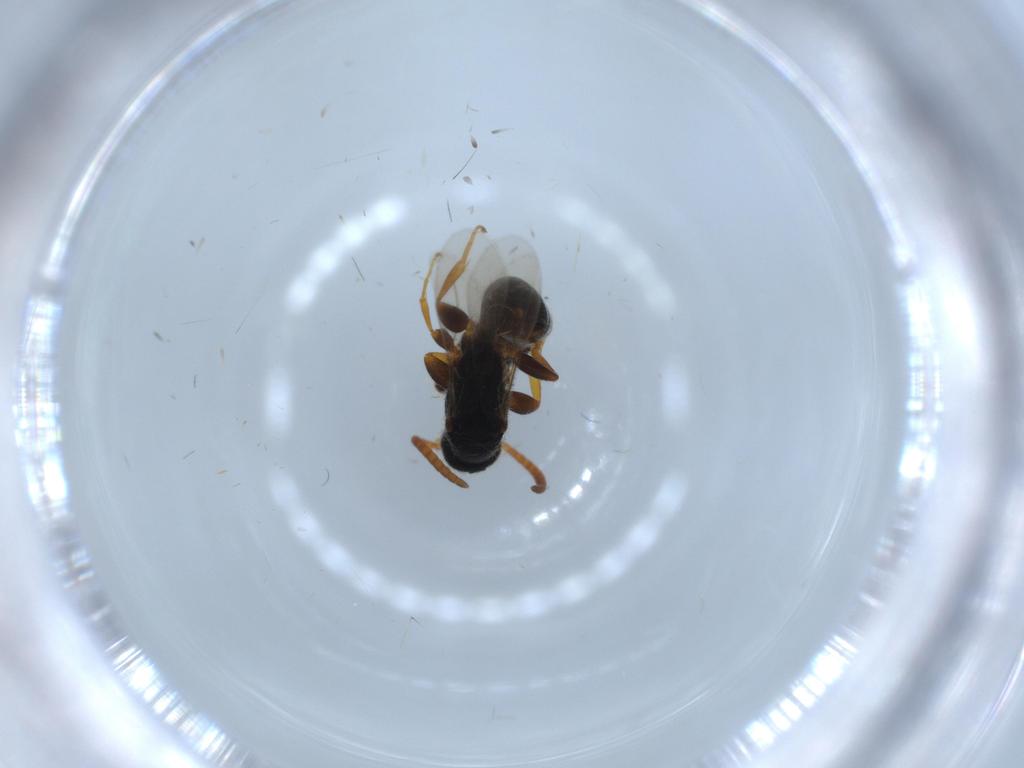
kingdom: Animalia
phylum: Arthropoda
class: Insecta
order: Hymenoptera
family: Bethylidae
